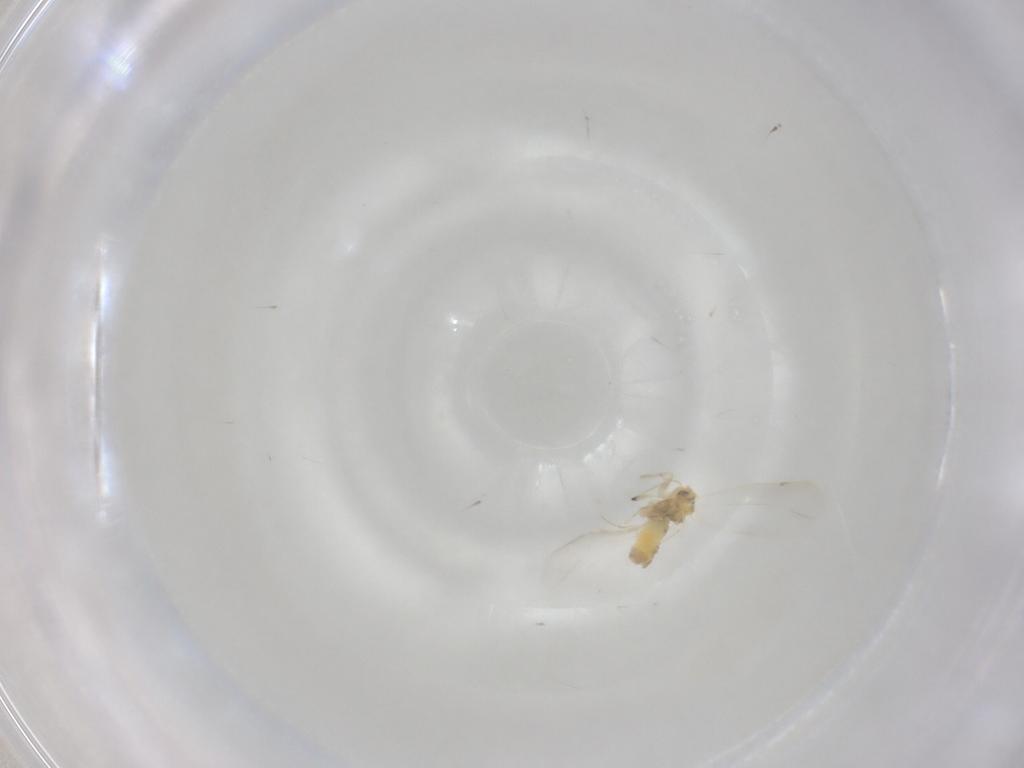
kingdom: Animalia
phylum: Arthropoda
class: Insecta
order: Hemiptera
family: Aleyrodidae
